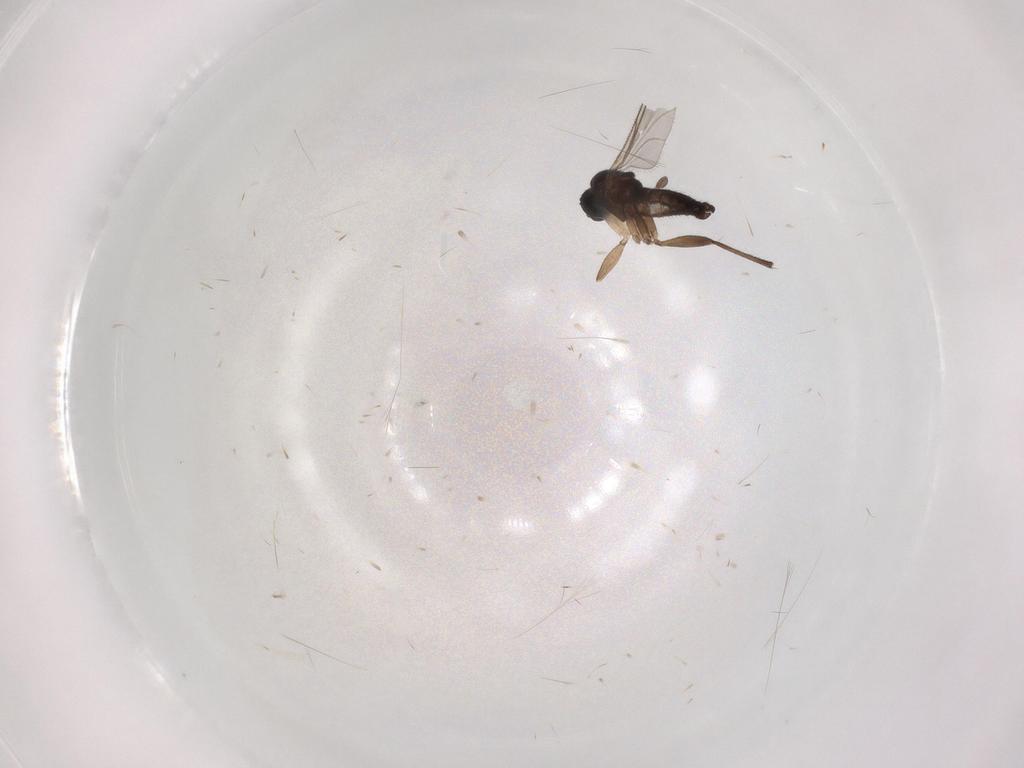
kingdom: Animalia
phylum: Arthropoda
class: Insecta
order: Diptera
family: Sciaridae
